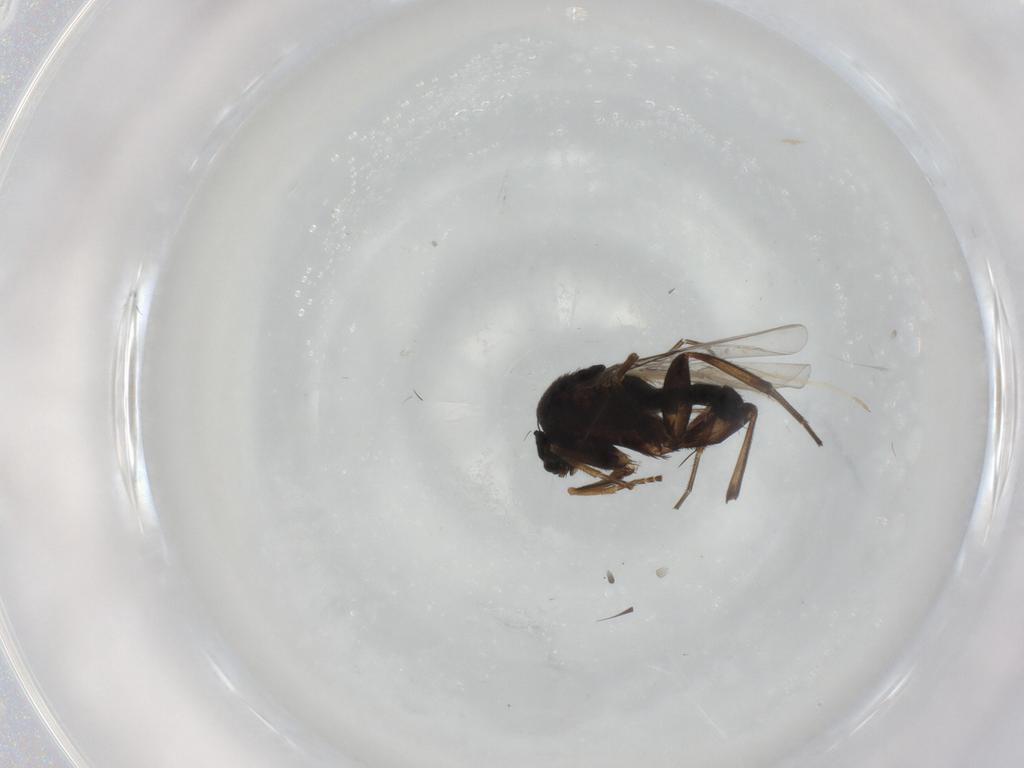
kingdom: Animalia
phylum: Arthropoda
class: Insecta
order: Diptera
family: Phoridae
